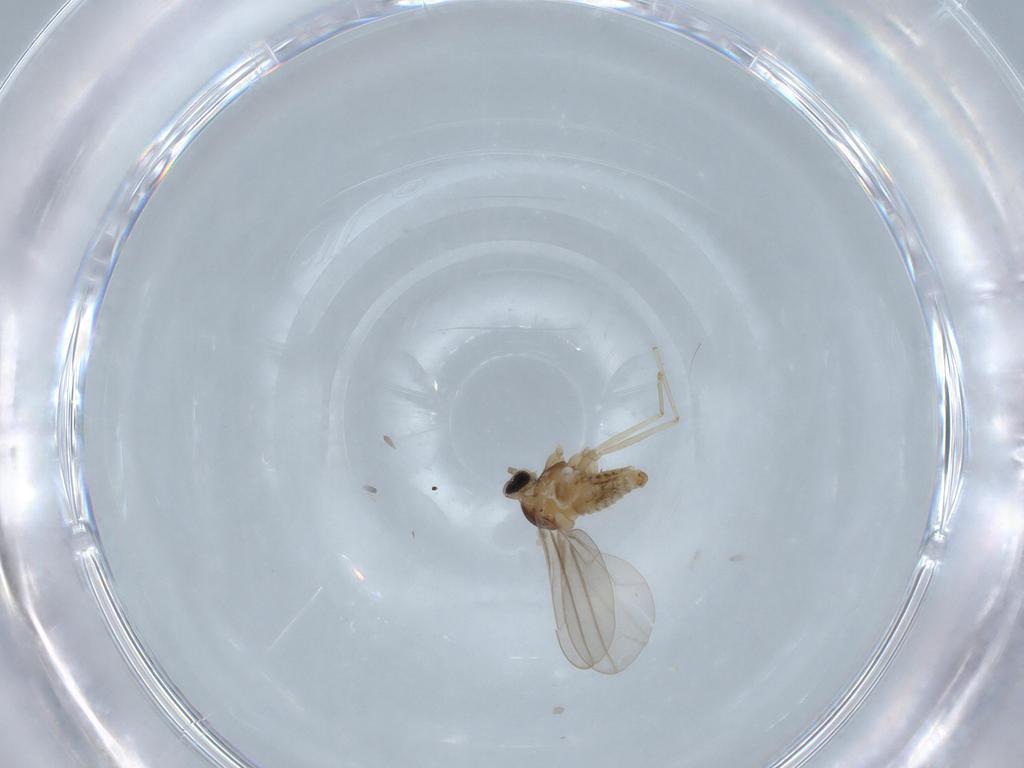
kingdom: Animalia
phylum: Arthropoda
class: Insecta
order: Diptera
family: Cecidomyiidae
